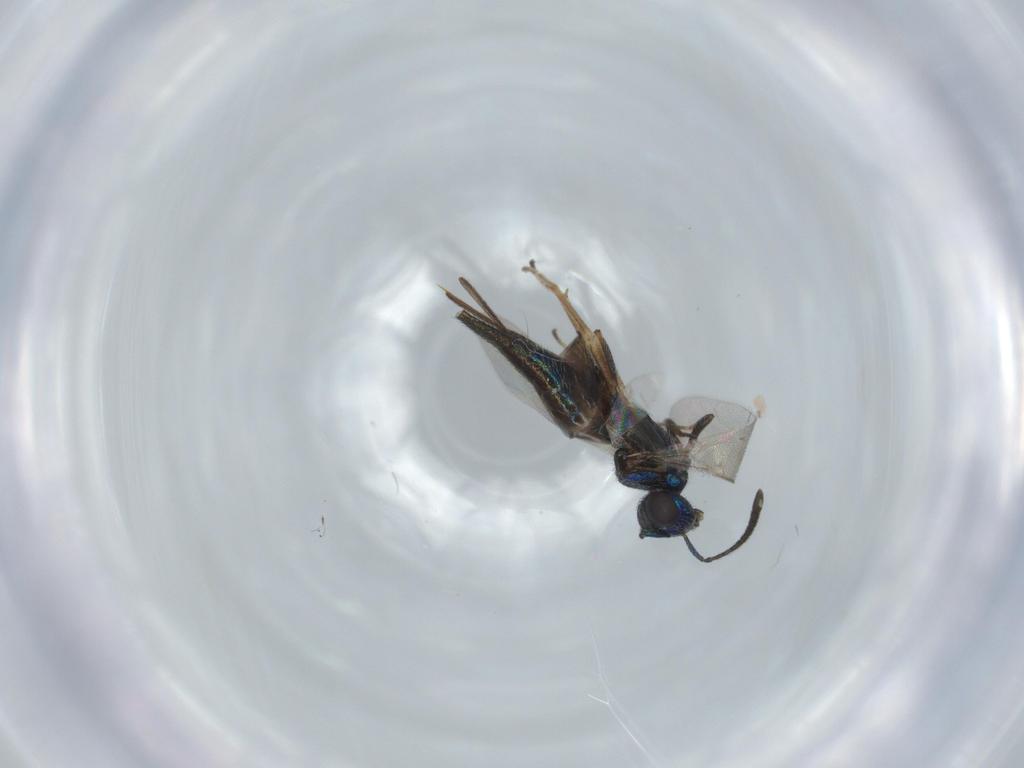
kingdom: Animalia
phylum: Arthropoda
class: Insecta
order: Hymenoptera
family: Eupelmidae
